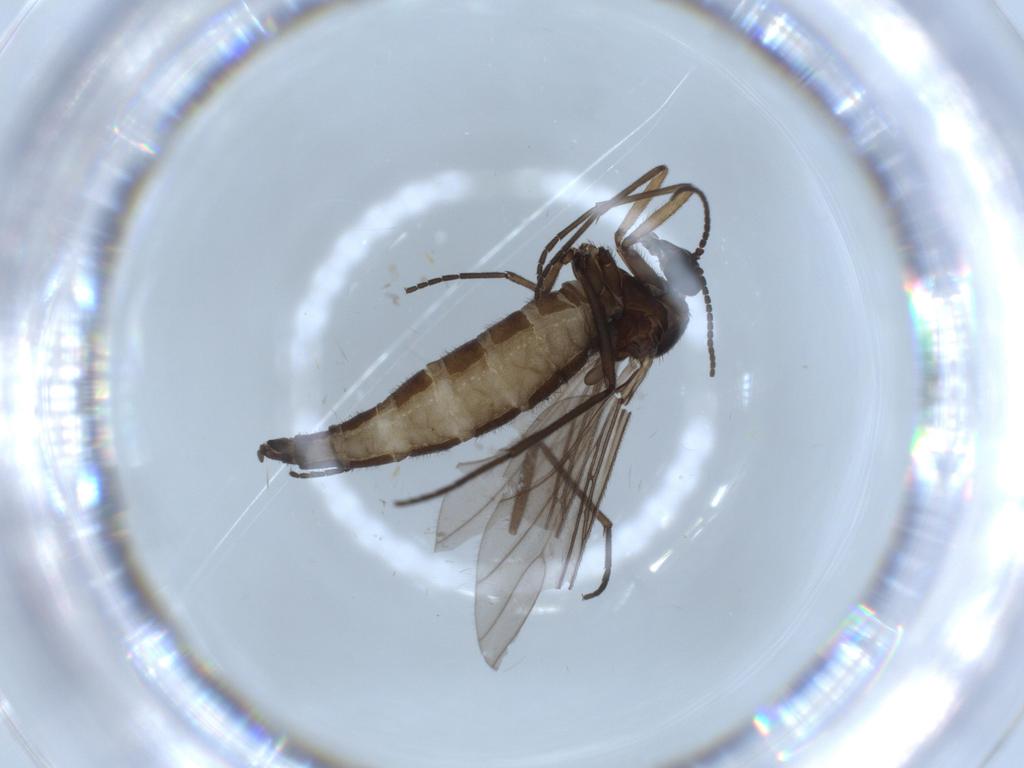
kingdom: Animalia
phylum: Arthropoda
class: Insecta
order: Diptera
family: Sciaridae
